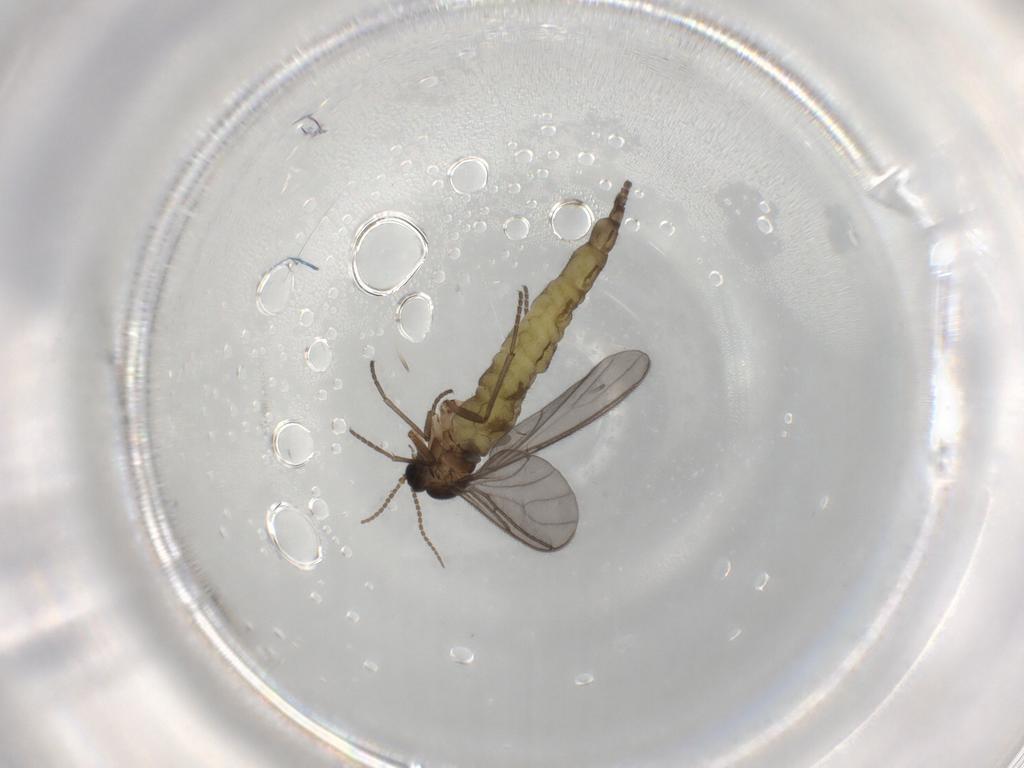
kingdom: Animalia
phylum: Arthropoda
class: Insecta
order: Diptera
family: Sciaridae
